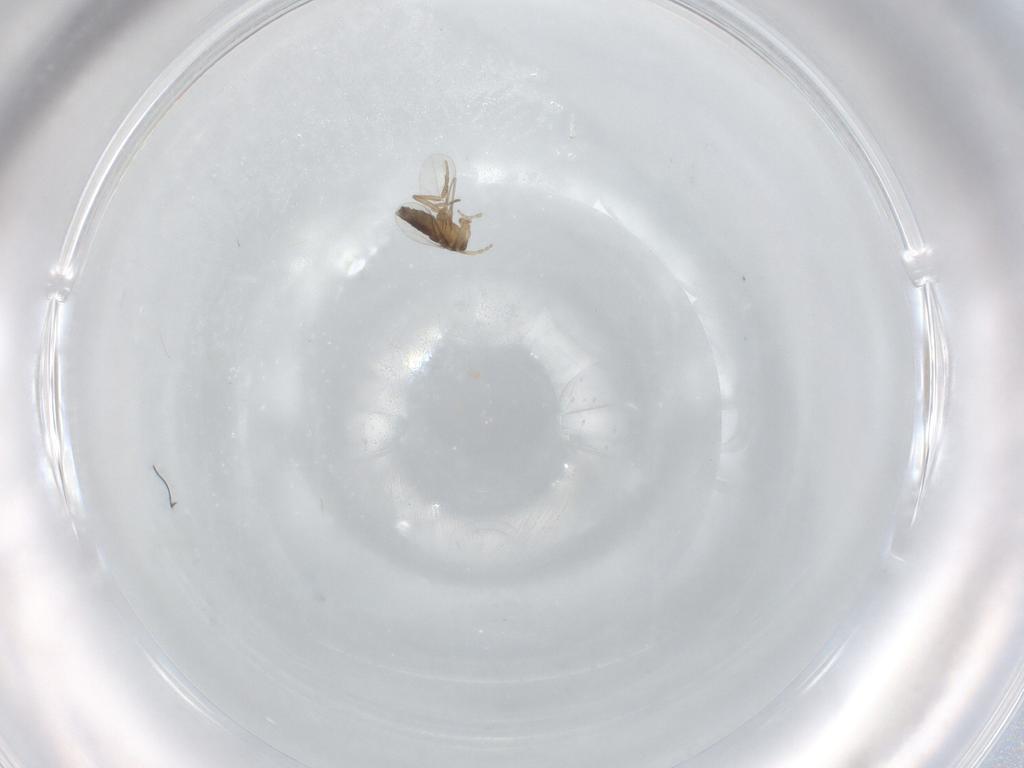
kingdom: Animalia
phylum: Arthropoda
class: Insecta
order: Diptera
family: Phoridae
